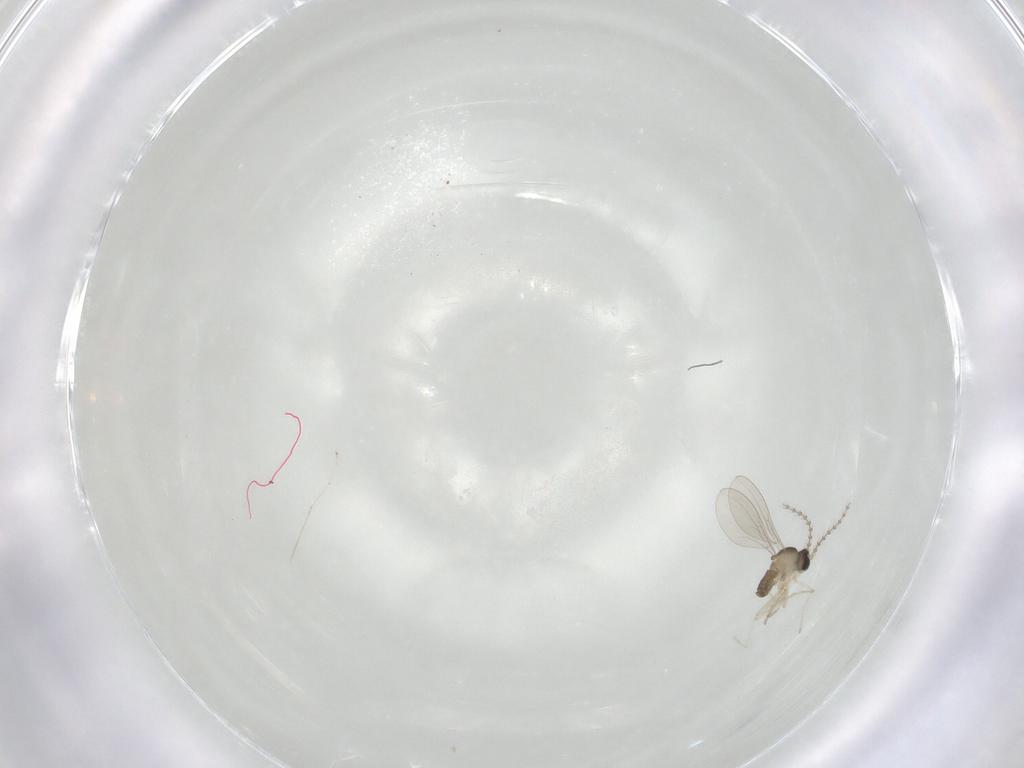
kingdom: Animalia
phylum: Arthropoda
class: Insecta
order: Diptera
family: Cecidomyiidae
